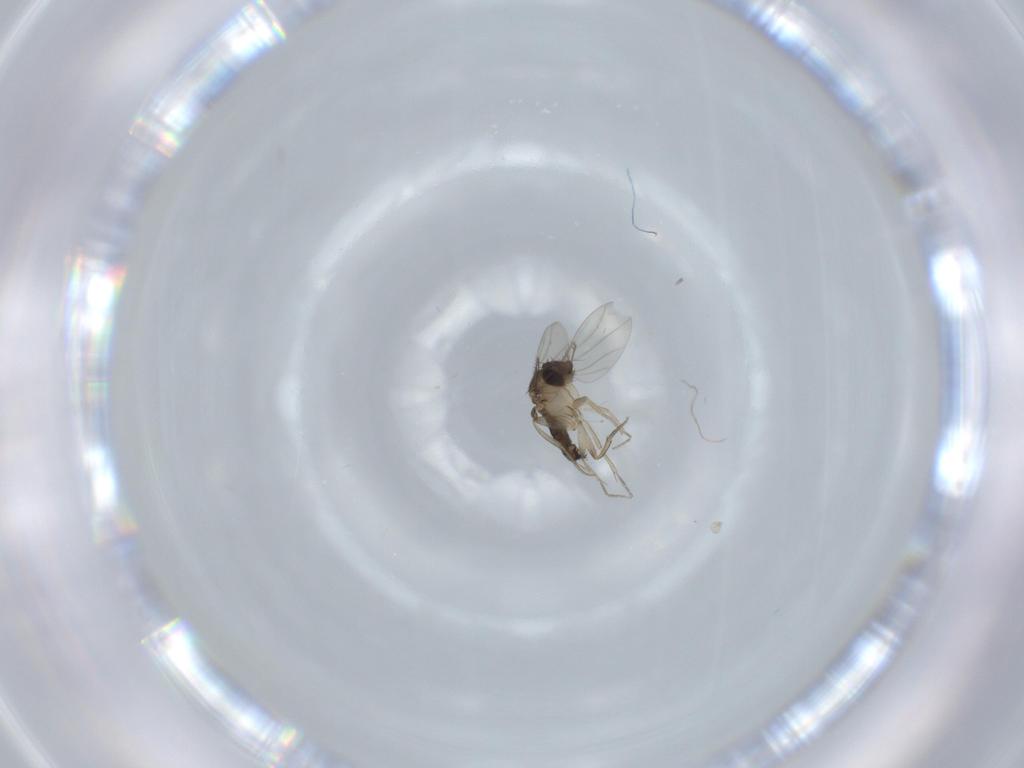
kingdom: Animalia
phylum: Arthropoda
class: Insecta
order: Diptera
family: Phoridae
